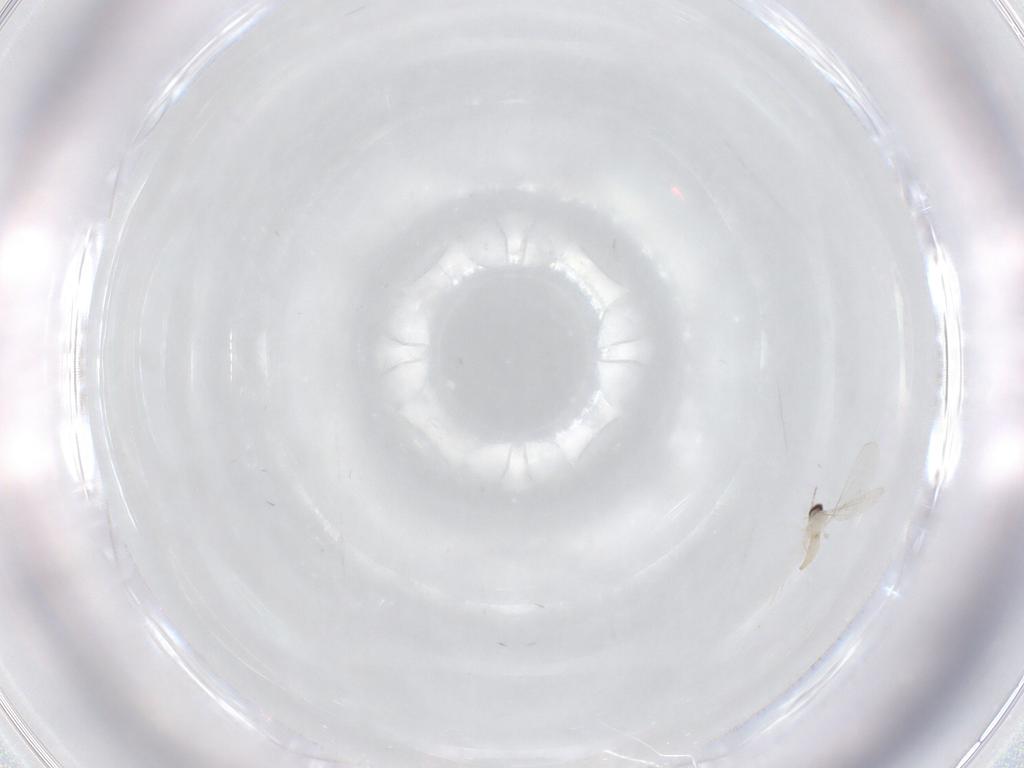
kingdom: Animalia
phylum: Arthropoda
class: Insecta
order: Diptera
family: Cecidomyiidae
